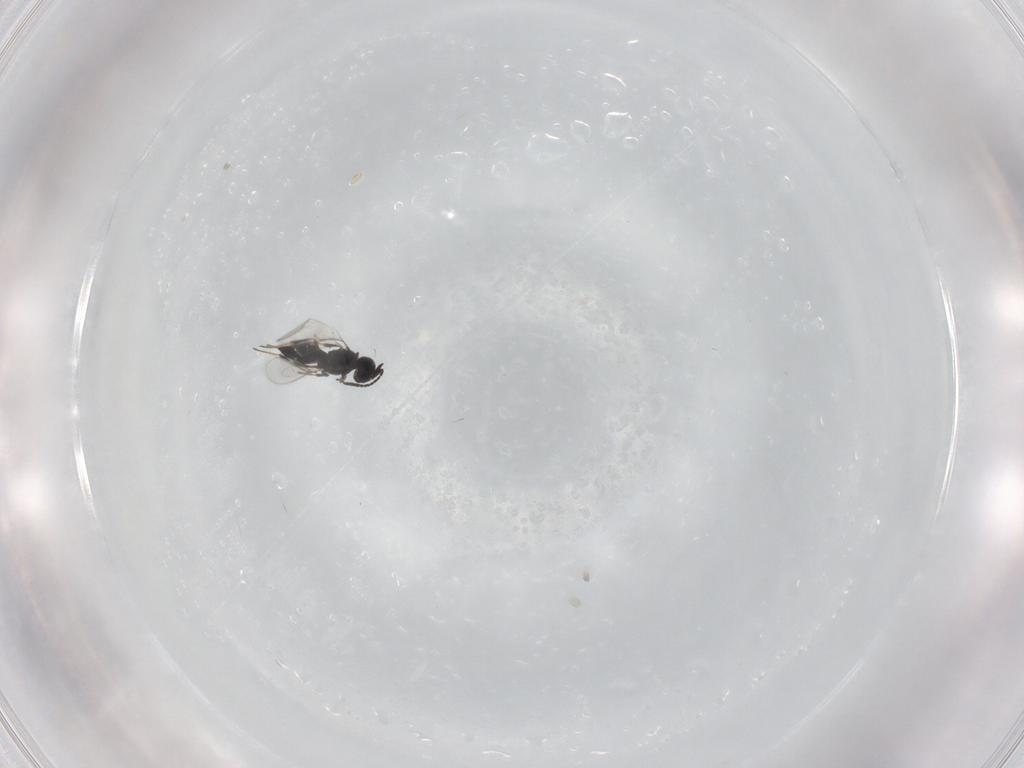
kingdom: Animalia
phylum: Arthropoda
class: Insecta
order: Hymenoptera
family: Scelionidae
